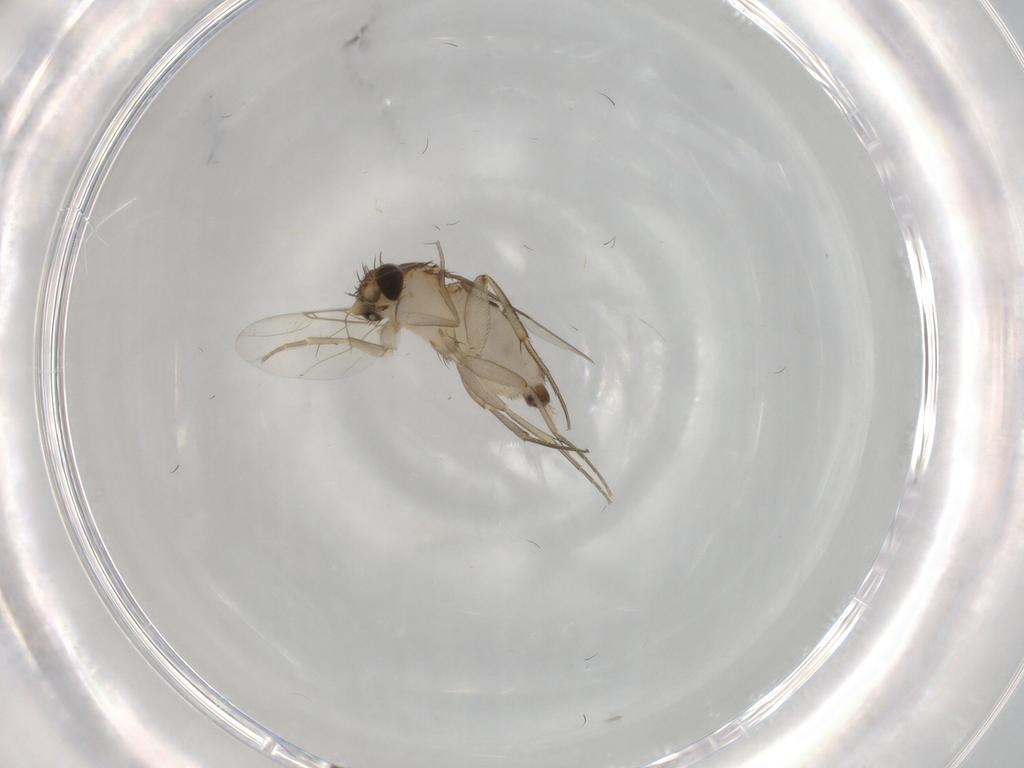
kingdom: Animalia
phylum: Arthropoda
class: Insecta
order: Diptera
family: Phoridae
